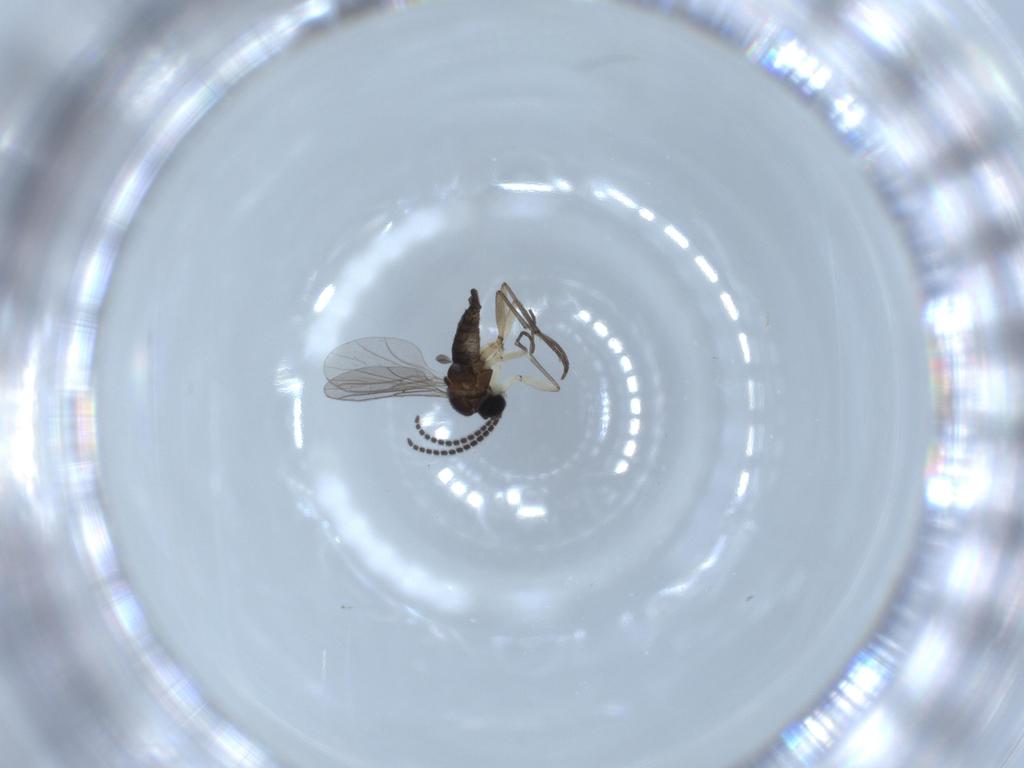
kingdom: Animalia
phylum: Arthropoda
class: Insecta
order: Diptera
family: Sciaridae
